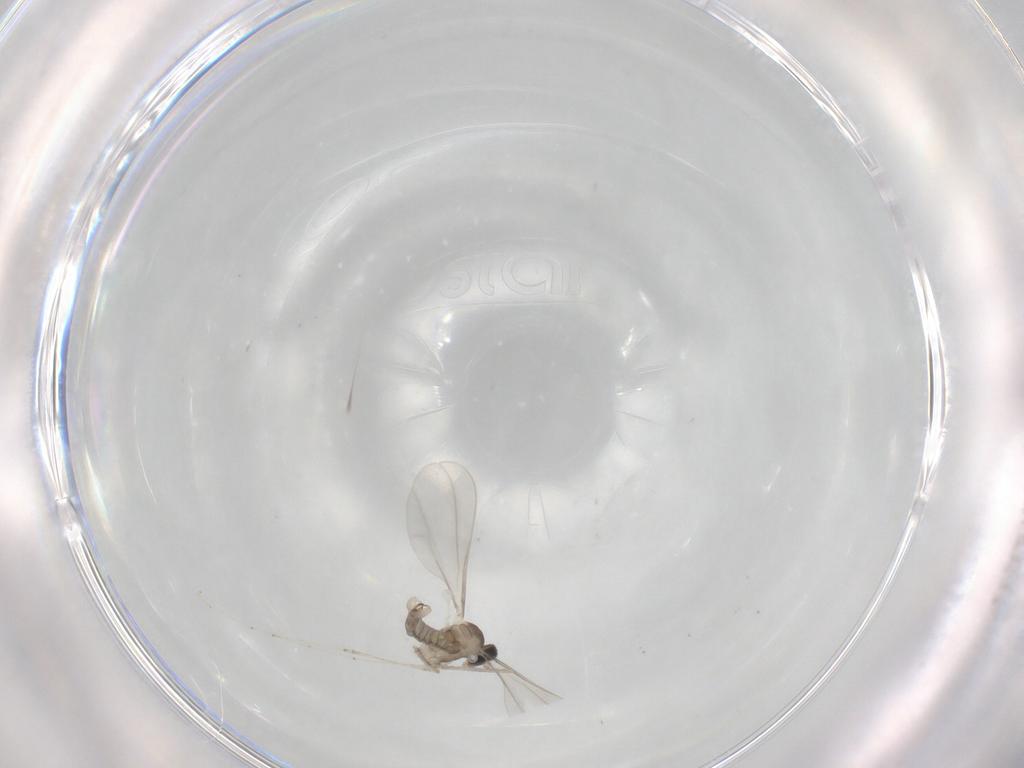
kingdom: Animalia
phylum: Arthropoda
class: Insecta
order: Diptera
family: Cecidomyiidae
